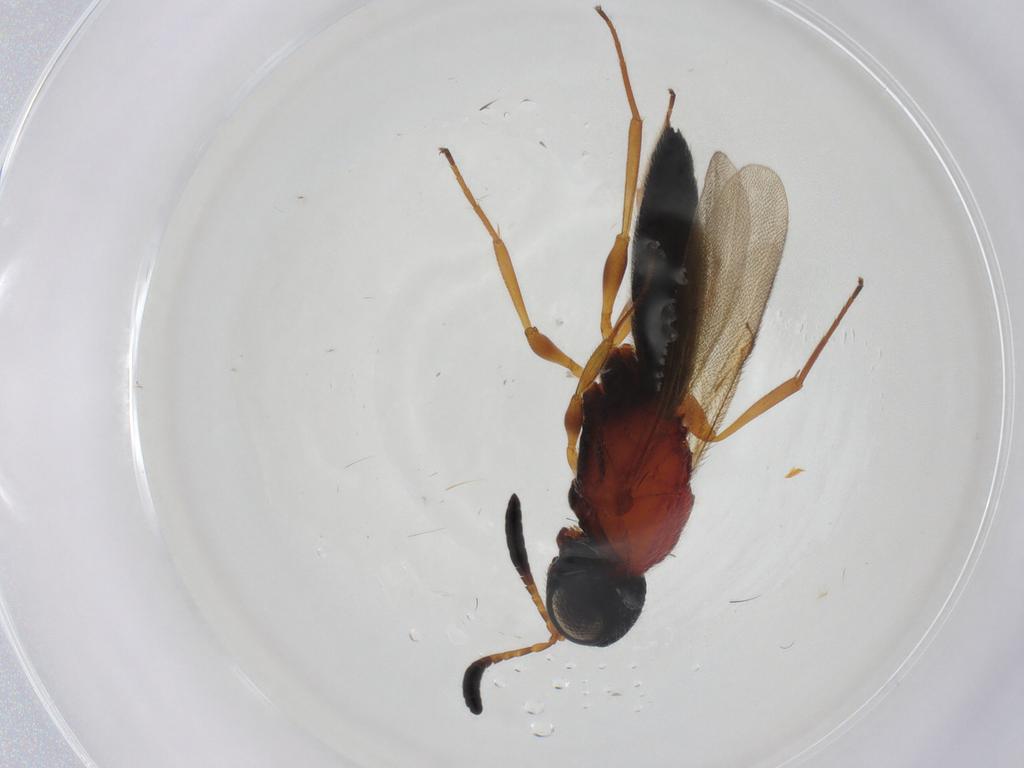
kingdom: Animalia
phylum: Arthropoda
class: Insecta
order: Hymenoptera
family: Scelionidae
